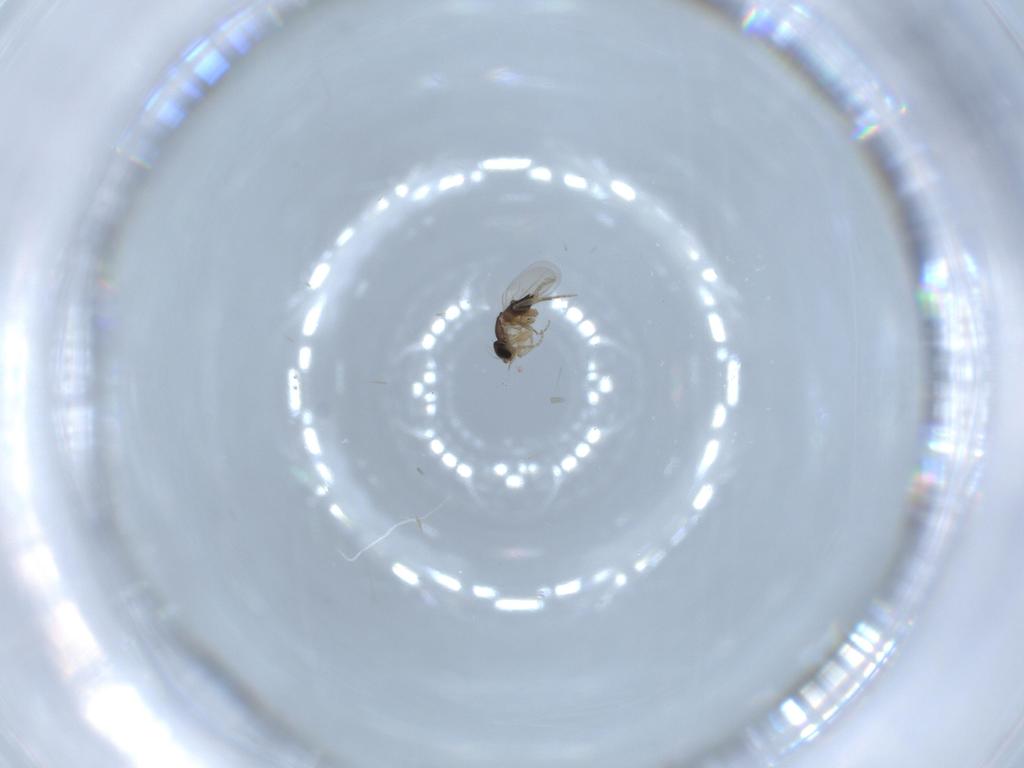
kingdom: Animalia
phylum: Arthropoda
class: Insecta
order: Diptera
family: Phoridae
